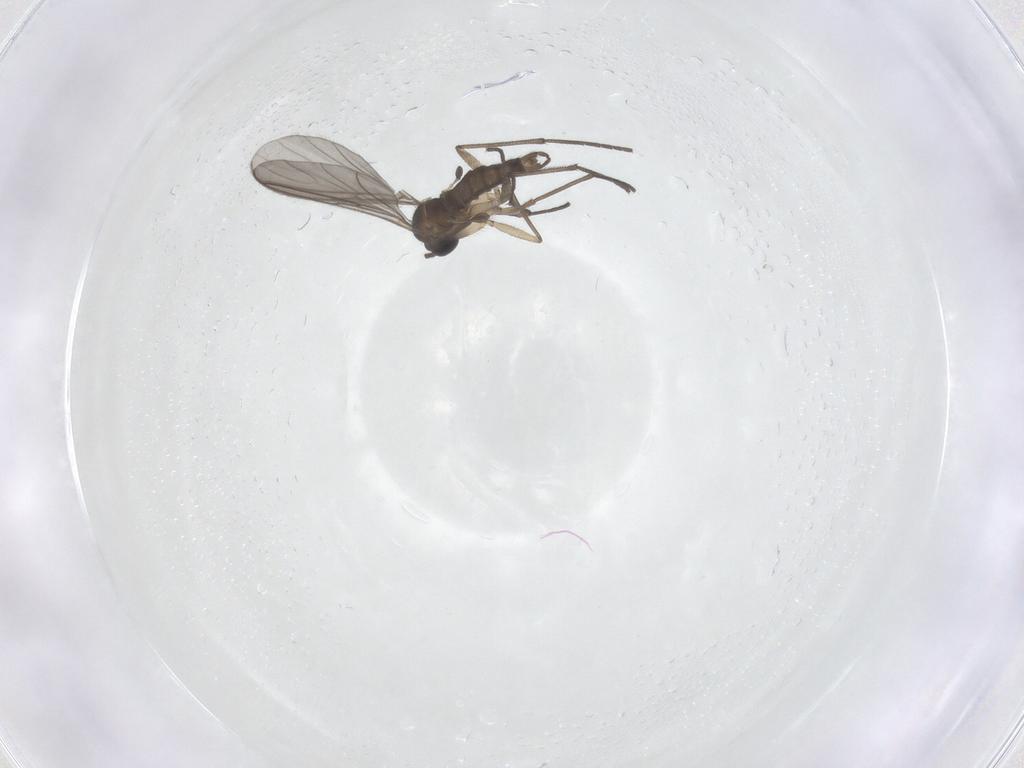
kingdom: Animalia
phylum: Arthropoda
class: Insecta
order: Diptera
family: Sciaridae
